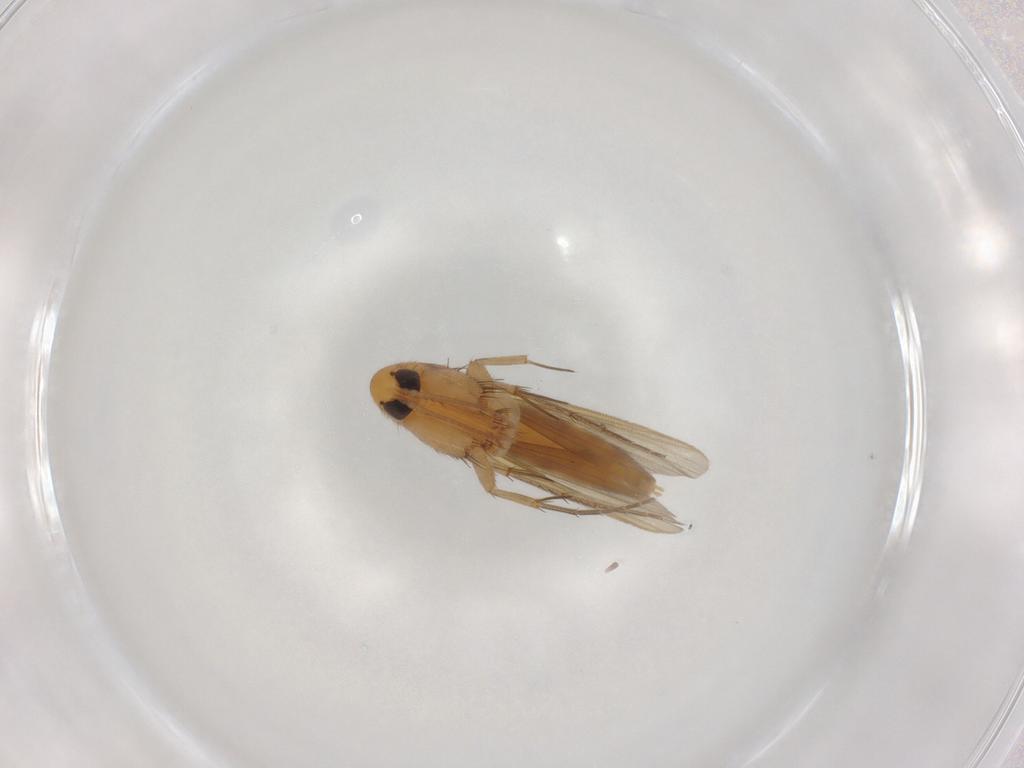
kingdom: Animalia
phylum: Arthropoda
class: Insecta
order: Diptera
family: Mycetophilidae
